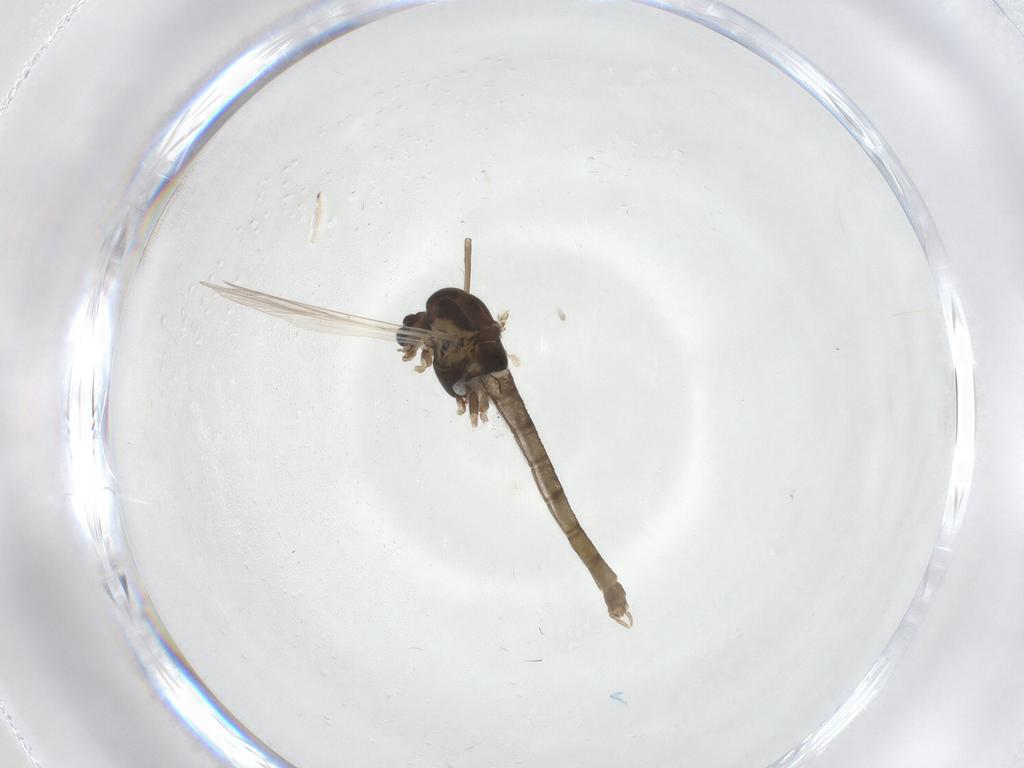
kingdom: Animalia
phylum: Arthropoda
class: Insecta
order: Diptera
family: Chironomidae
